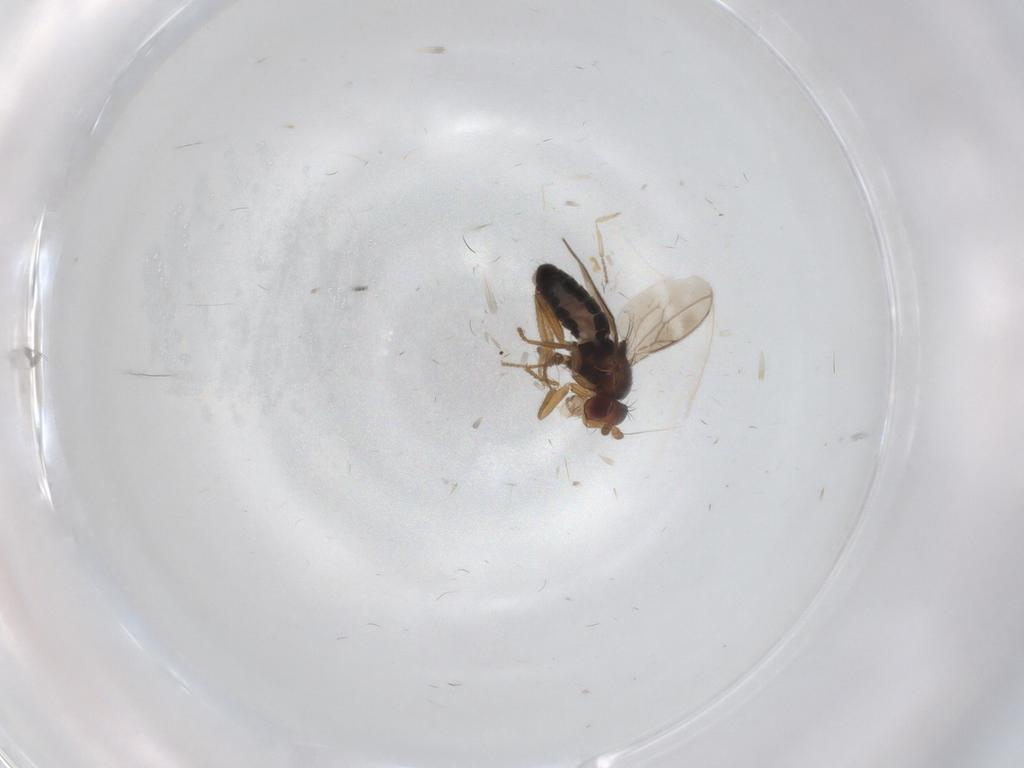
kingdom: Animalia
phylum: Arthropoda
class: Insecta
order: Diptera
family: Sphaeroceridae
